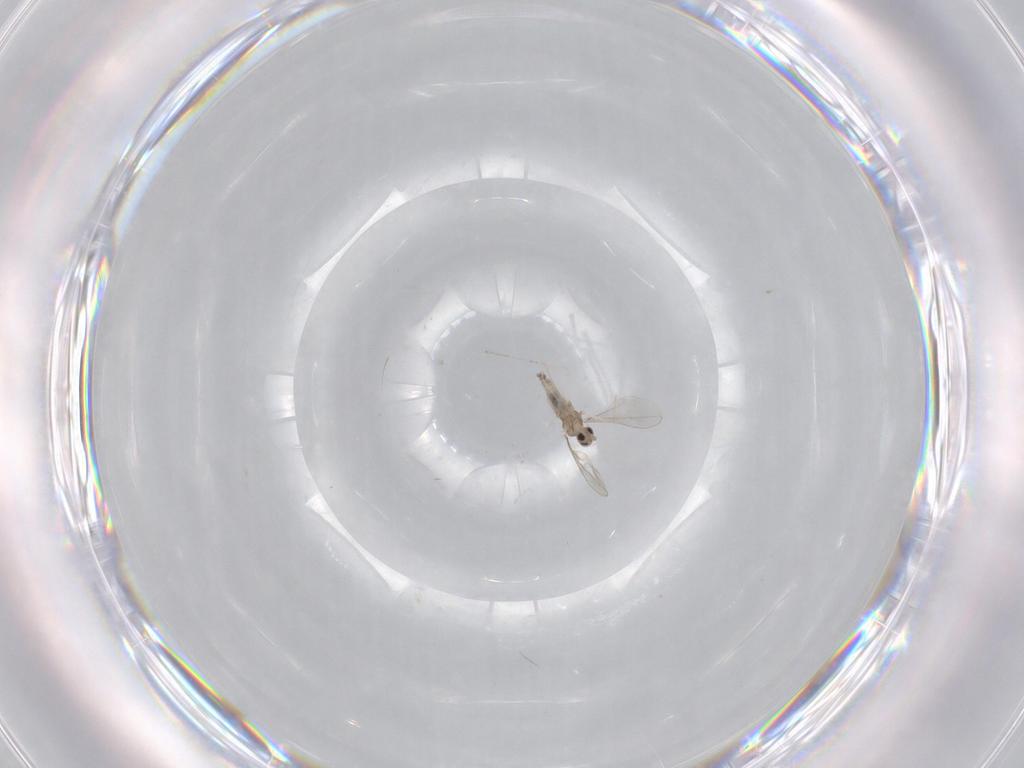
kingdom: Animalia
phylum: Arthropoda
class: Insecta
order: Diptera
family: Cecidomyiidae
